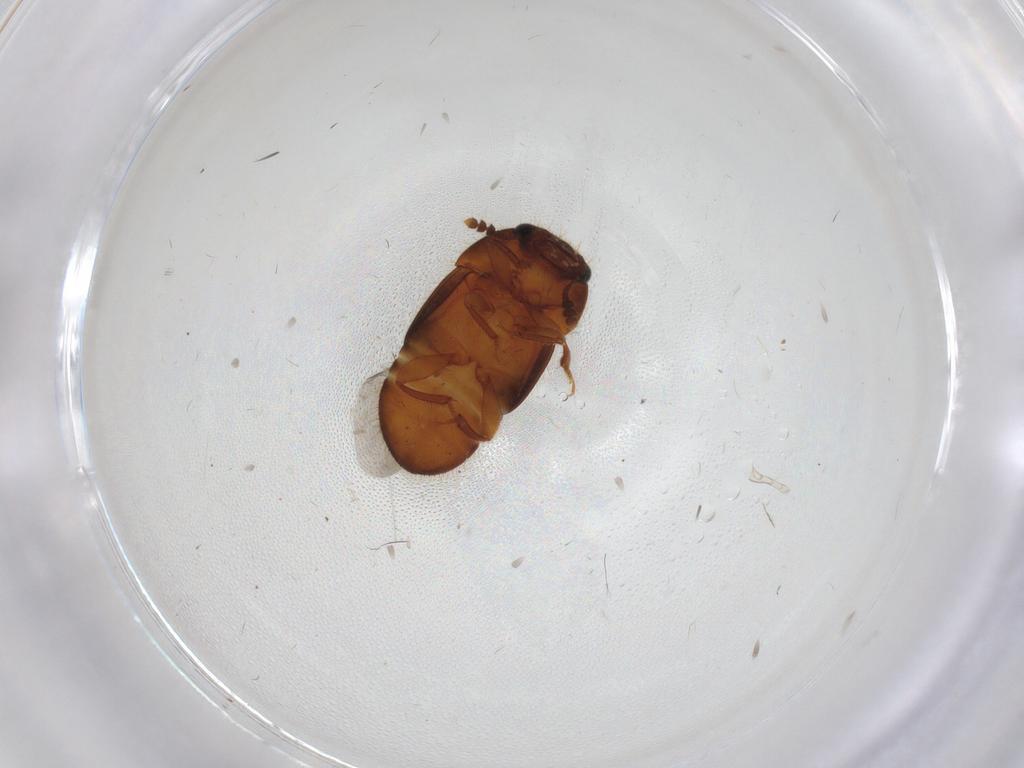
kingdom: Animalia
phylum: Arthropoda
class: Insecta
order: Coleoptera
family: Nitidulidae
